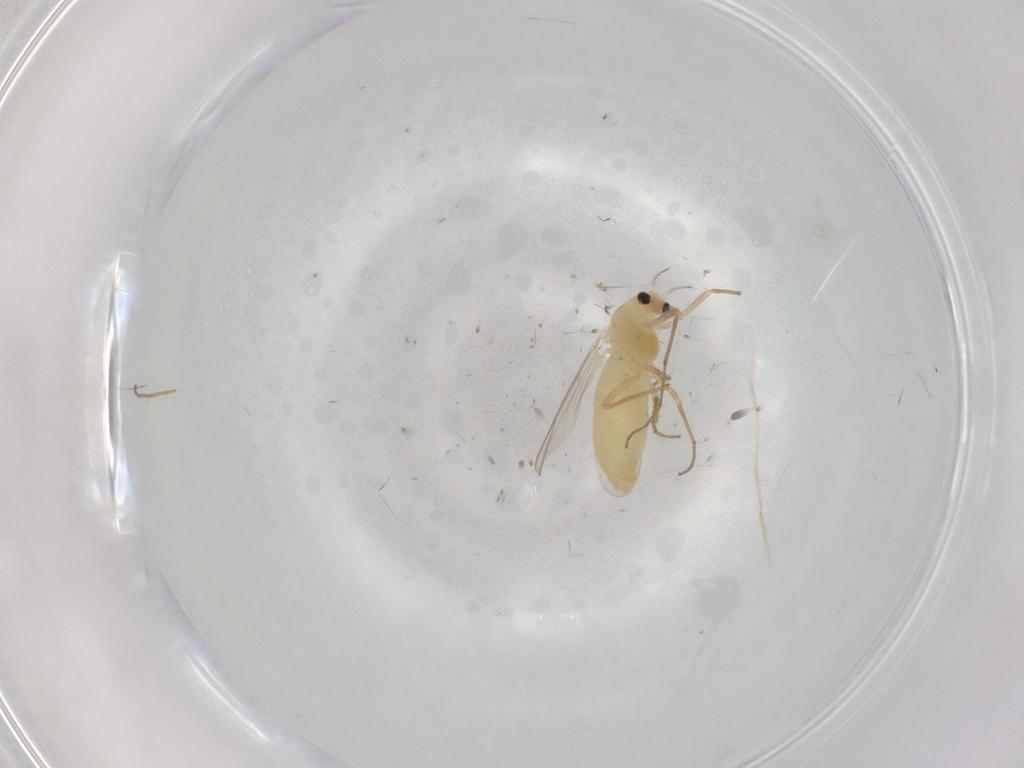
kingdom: Animalia
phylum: Arthropoda
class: Insecta
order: Diptera
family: Chironomidae
